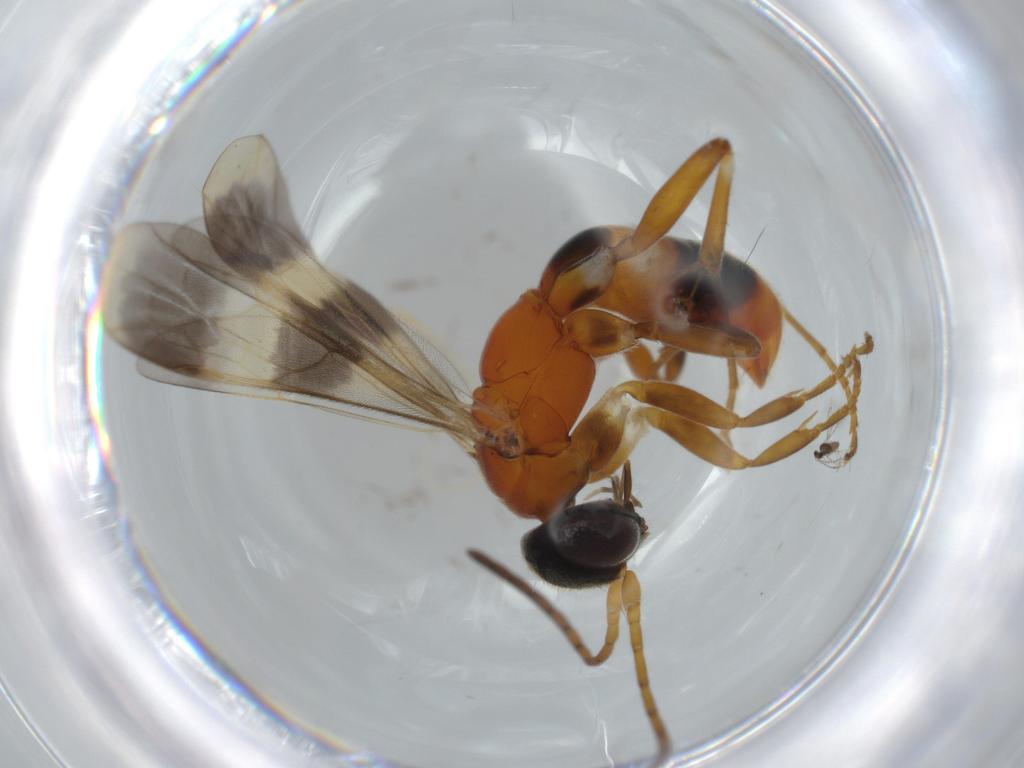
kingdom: Animalia
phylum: Arthropoda
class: Insecta
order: Hymenoptera
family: Pompilidae
